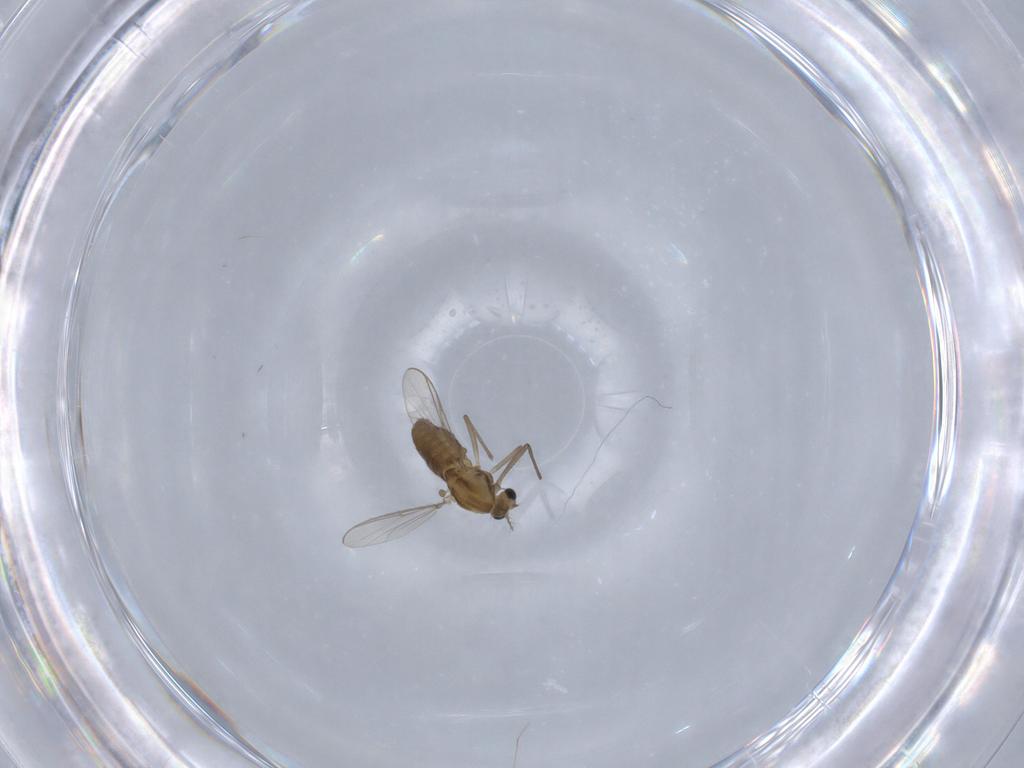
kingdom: Animalia
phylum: Arthropoda
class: Insecta
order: Diptera
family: Chironomidae
